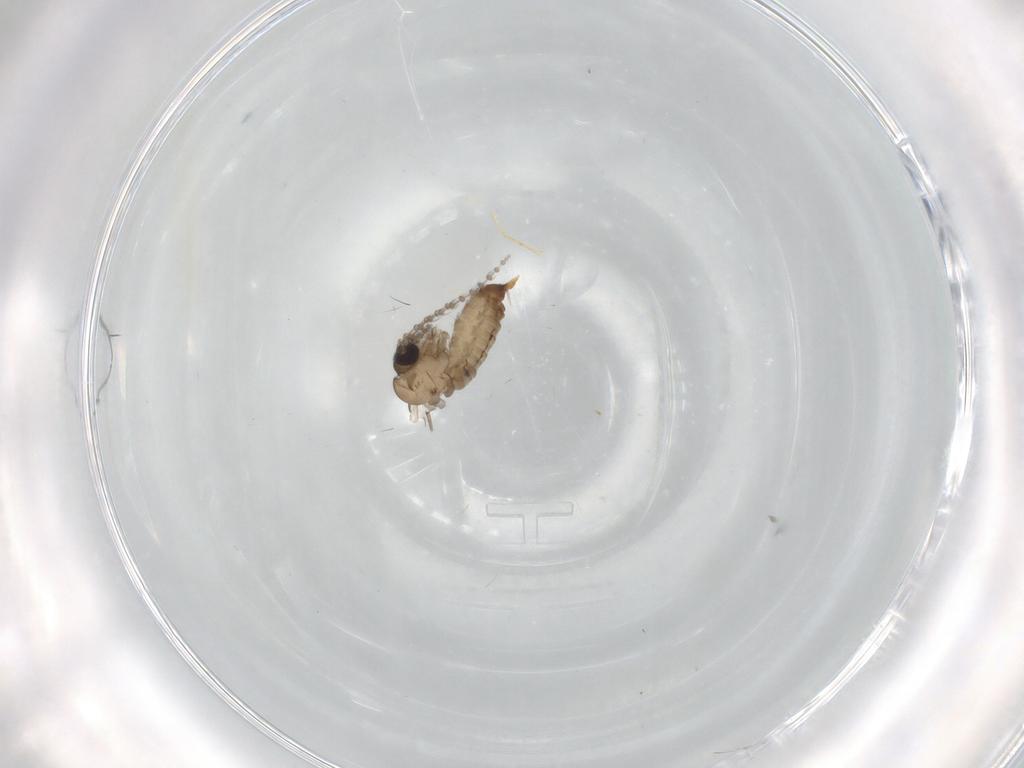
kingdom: Animalia
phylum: Arthropoda
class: Insecta
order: Diptera
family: Psychodidae
